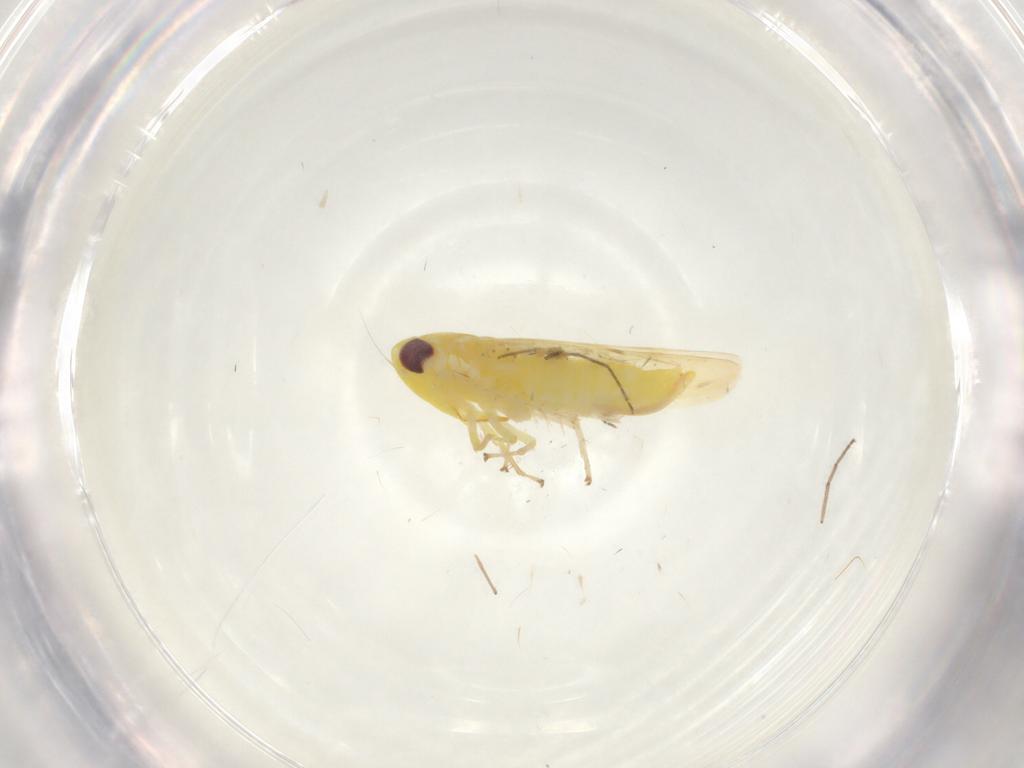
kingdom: Animalia
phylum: Arthropoda
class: Insecta
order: Hemiptera
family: Cicadellidae
